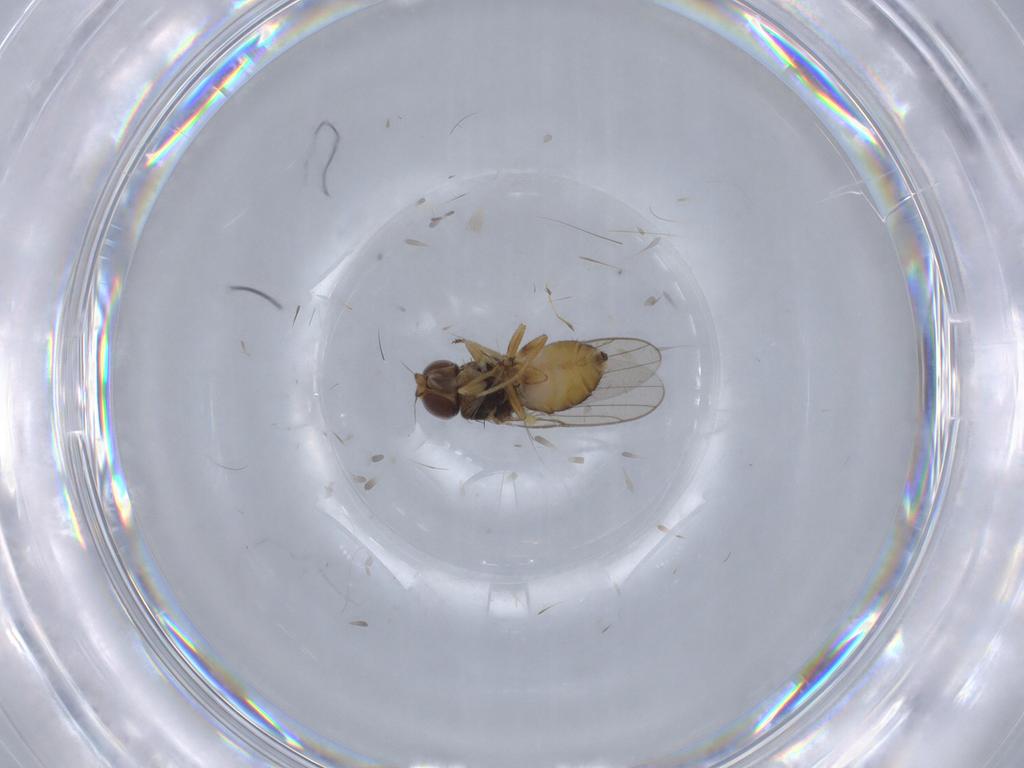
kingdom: Animalia
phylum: Arthropoda
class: Insecta
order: Diptera
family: Chloropidae
